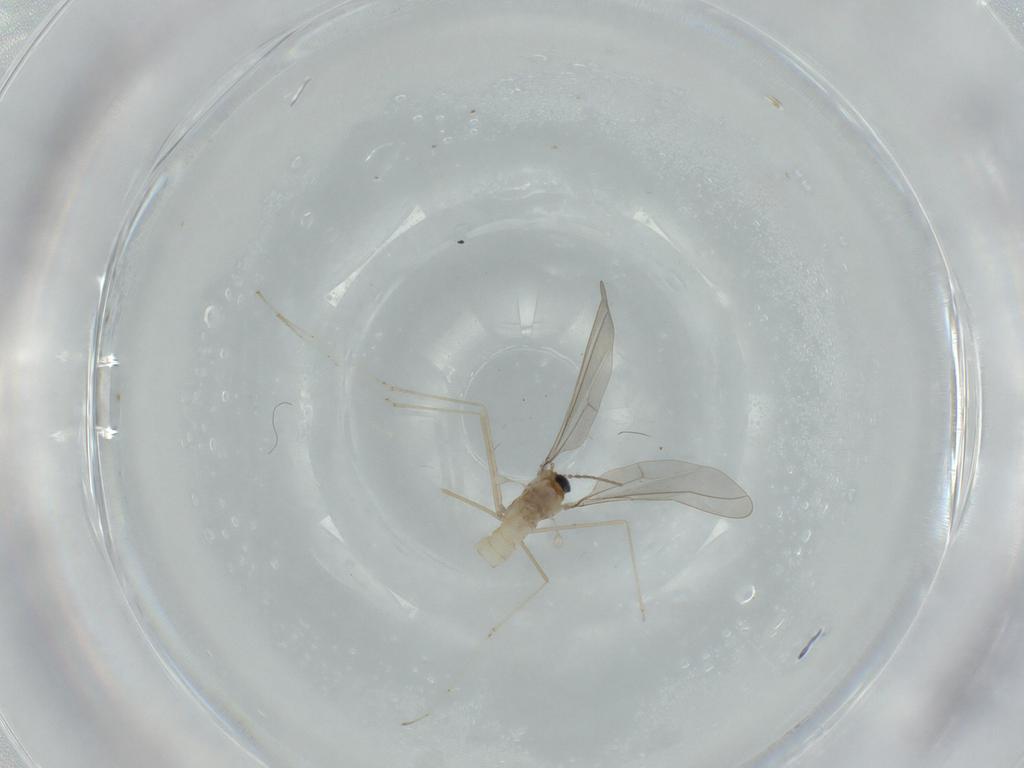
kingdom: Animalia
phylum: Arthropoda
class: Insecta
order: Diptera
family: Cecidomyiidae
